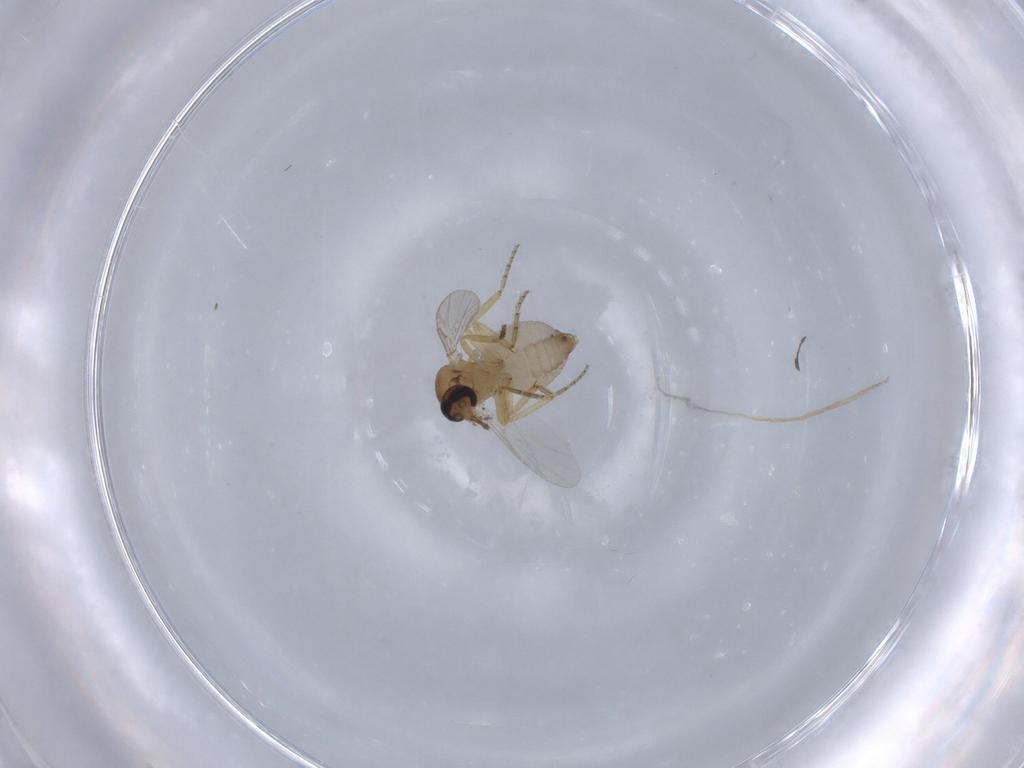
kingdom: Animalia
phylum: Arthropoda
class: Insecta
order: Diptera
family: Ceratopogonidae
